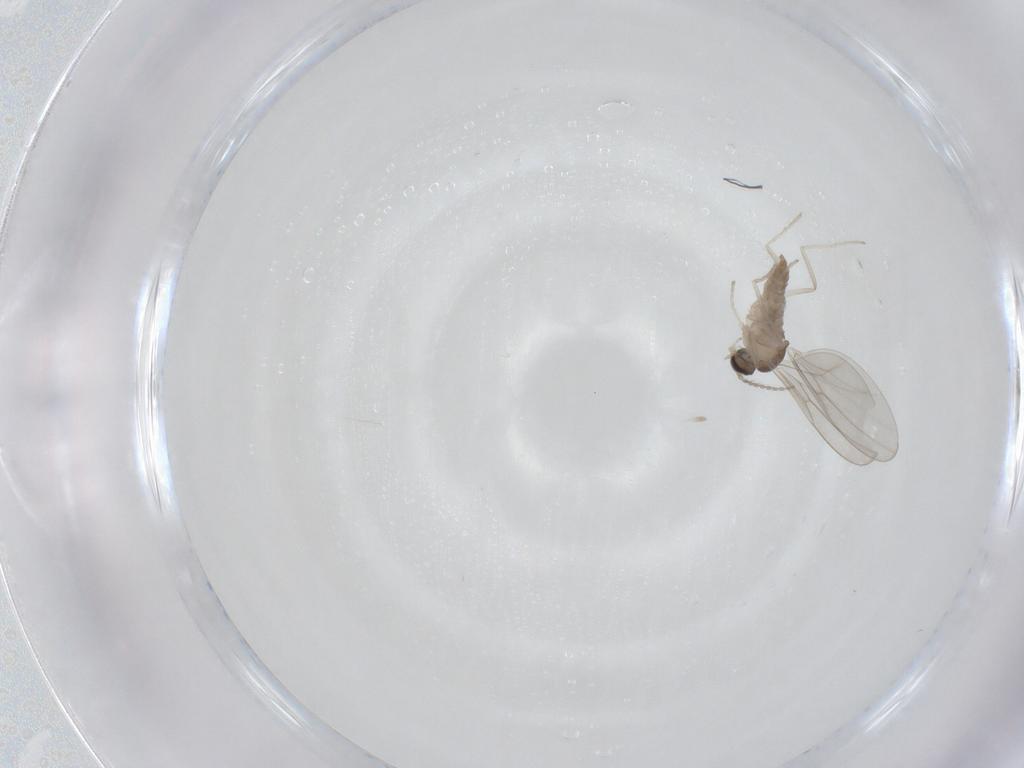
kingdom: Animalia
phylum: Arthropoda
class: Insecta
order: Diptera
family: Cecidomyiidae
